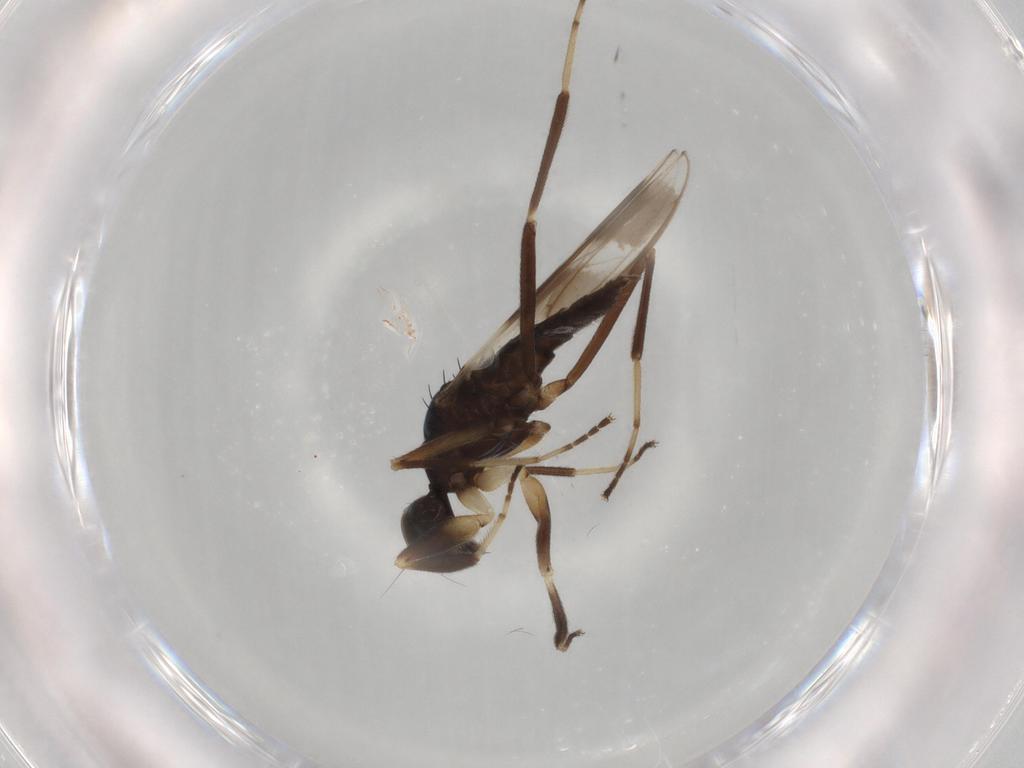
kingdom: Animalia
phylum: Arthropoda
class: Insecta
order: Diptera
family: Hybotidae
